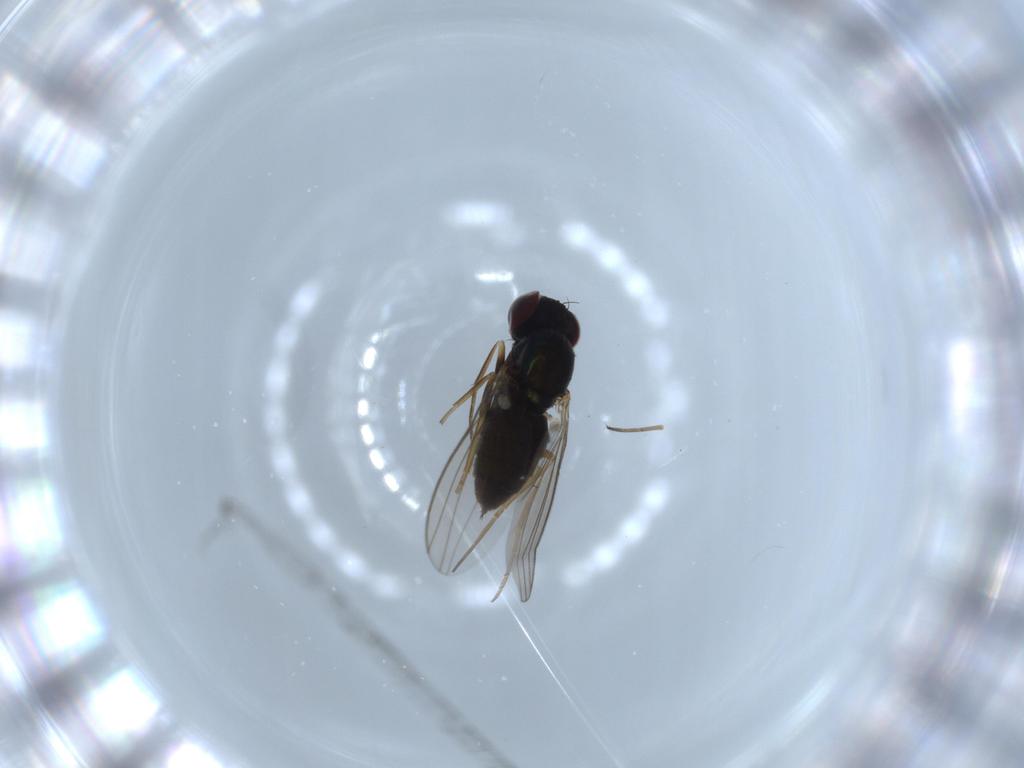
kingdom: Animalia
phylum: Arthropoda
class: Insecta
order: Diptera
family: Dolichopodidae
